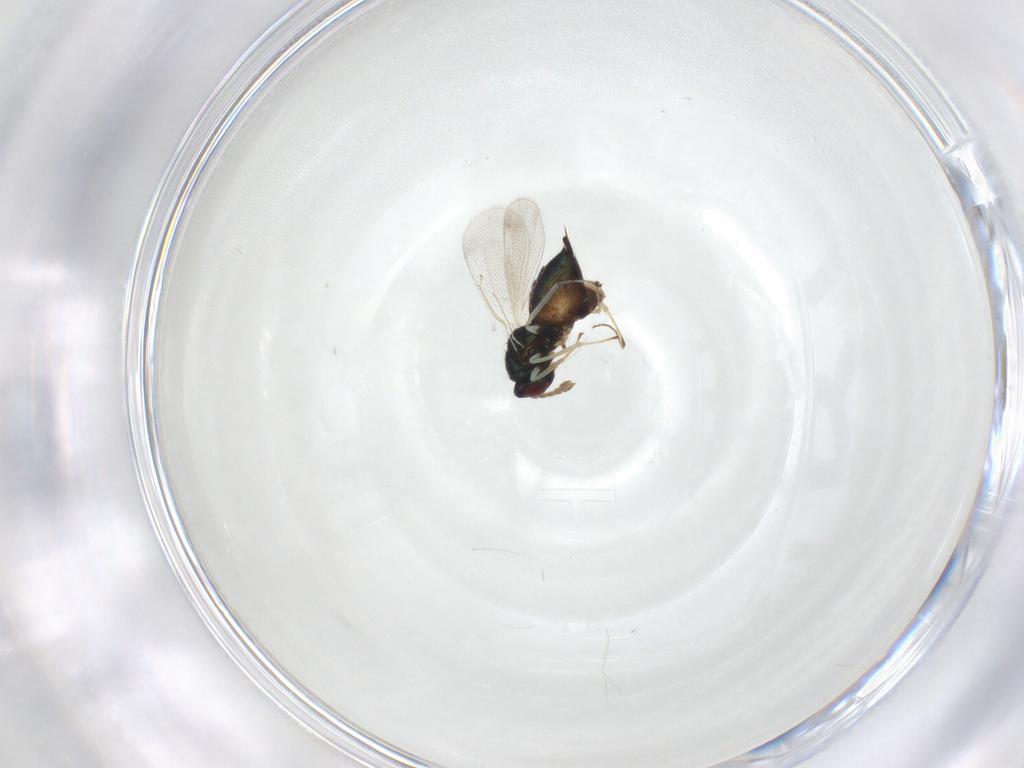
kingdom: Animalia
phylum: Arthropoda
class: Insecta
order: Hymenoptera
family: Eulophidae
